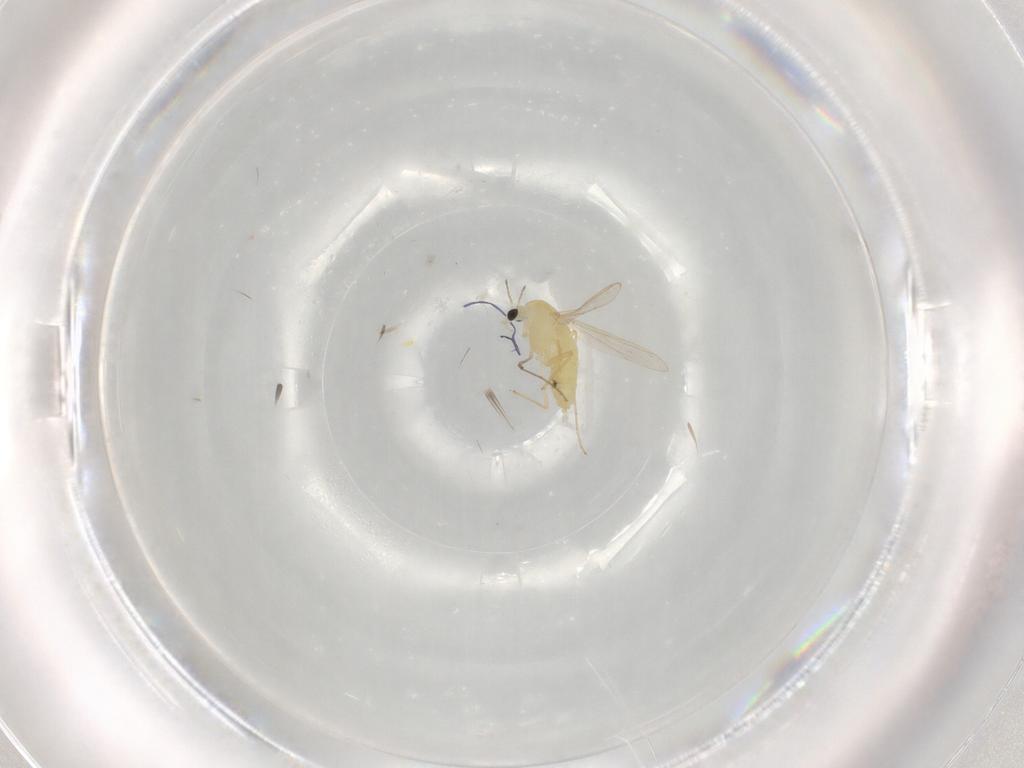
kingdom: Animalia
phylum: Arthropoda
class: Insecta
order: Diptera
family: Chironomidae
